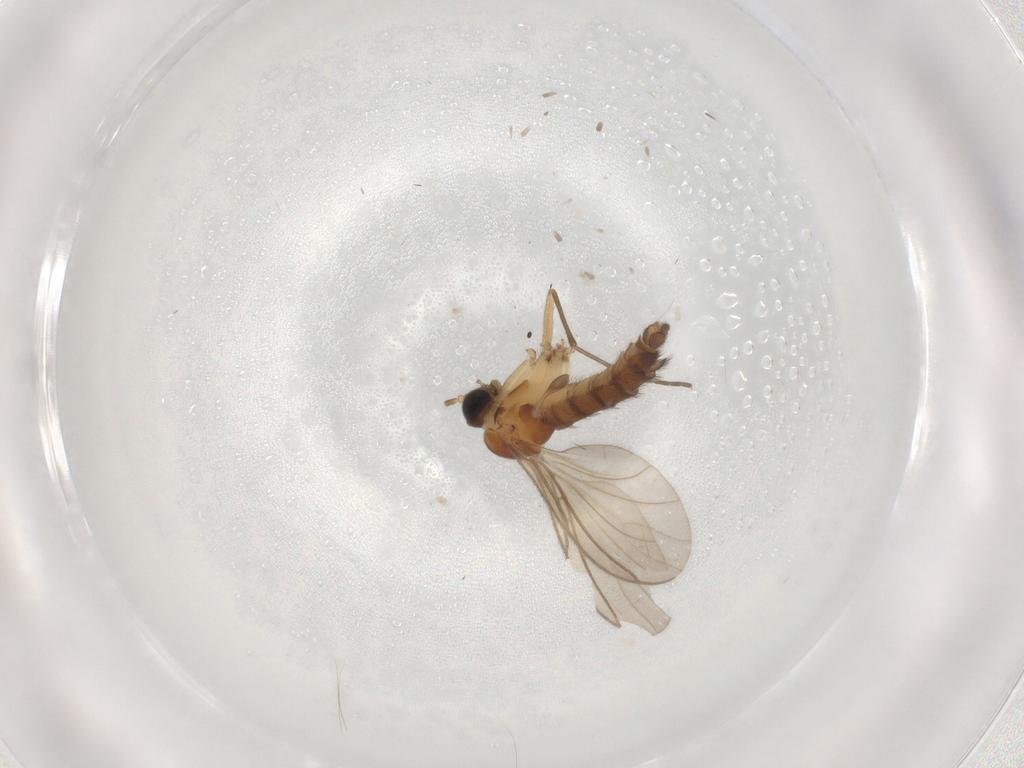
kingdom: Animalia
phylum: Arthropoda
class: Insecta
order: Diptera
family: Sciaridae
